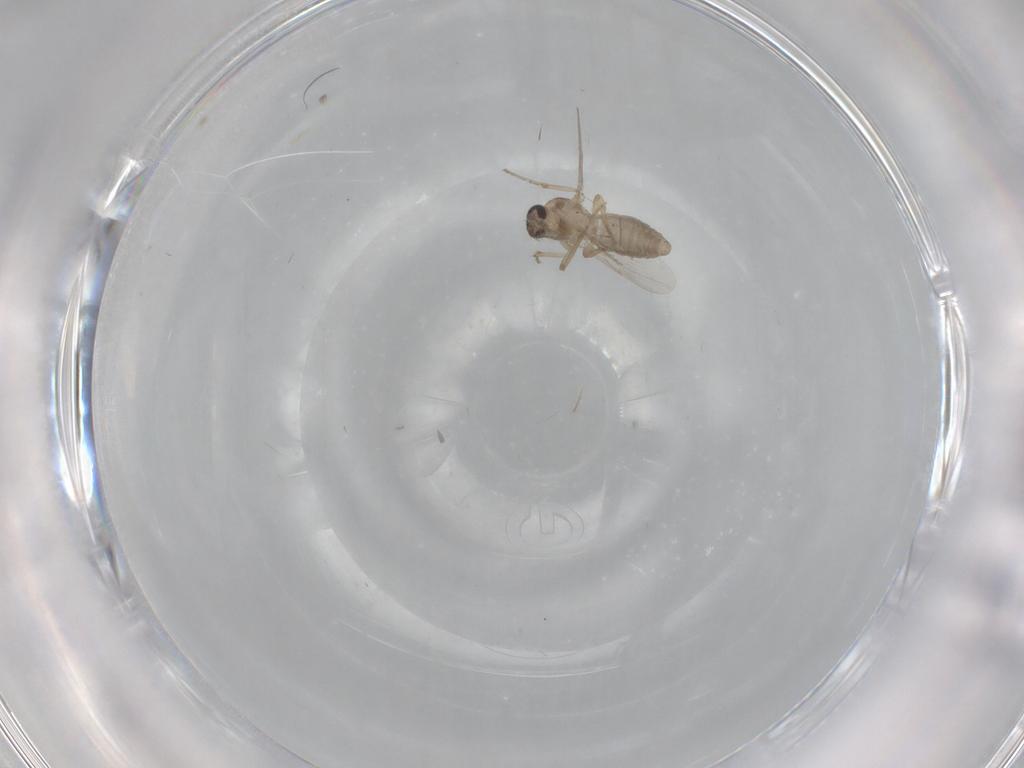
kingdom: Animalia
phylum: Arthropoda
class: Insecta
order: Diptera
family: Ceratopogonidae
